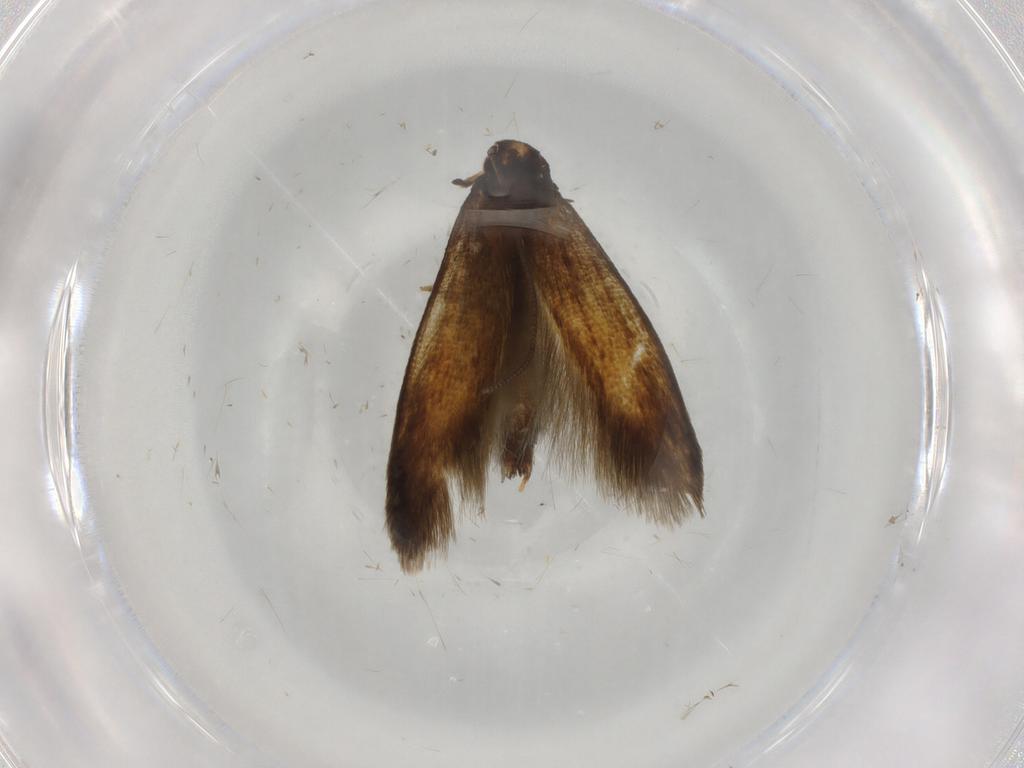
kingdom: Animalia
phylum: Arthropoda
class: Insecta
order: Lepidoptera
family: Tineidae
